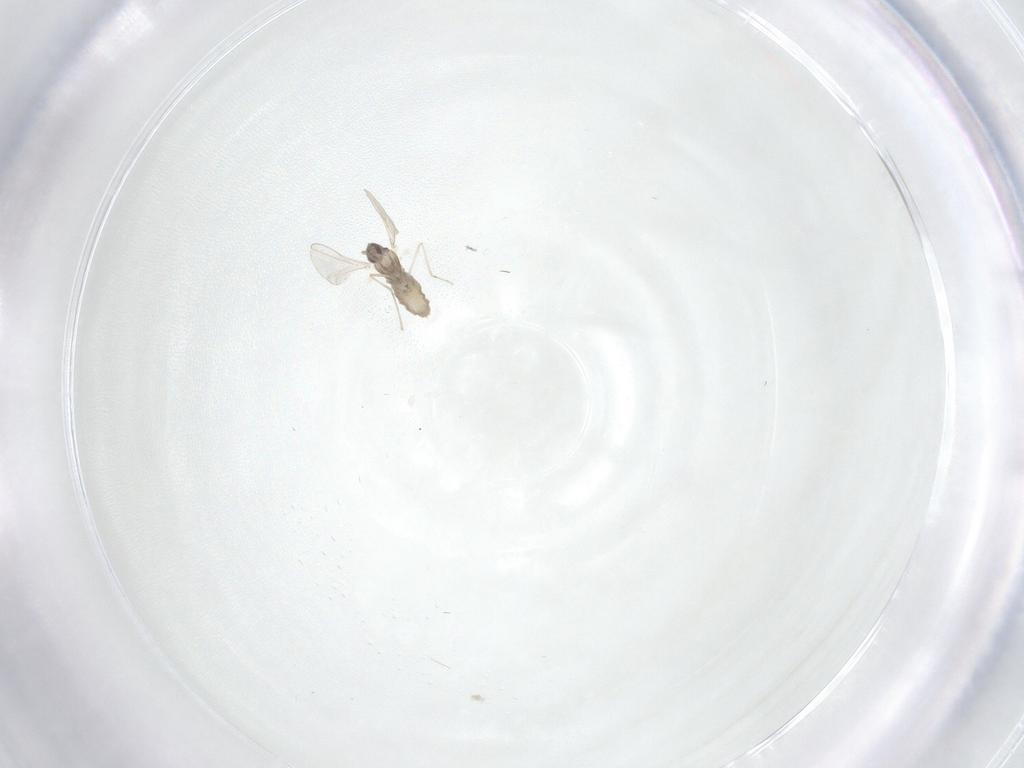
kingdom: Animalia
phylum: Arthropoda
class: Insecta
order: Diptera
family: Cecidomyiidae
